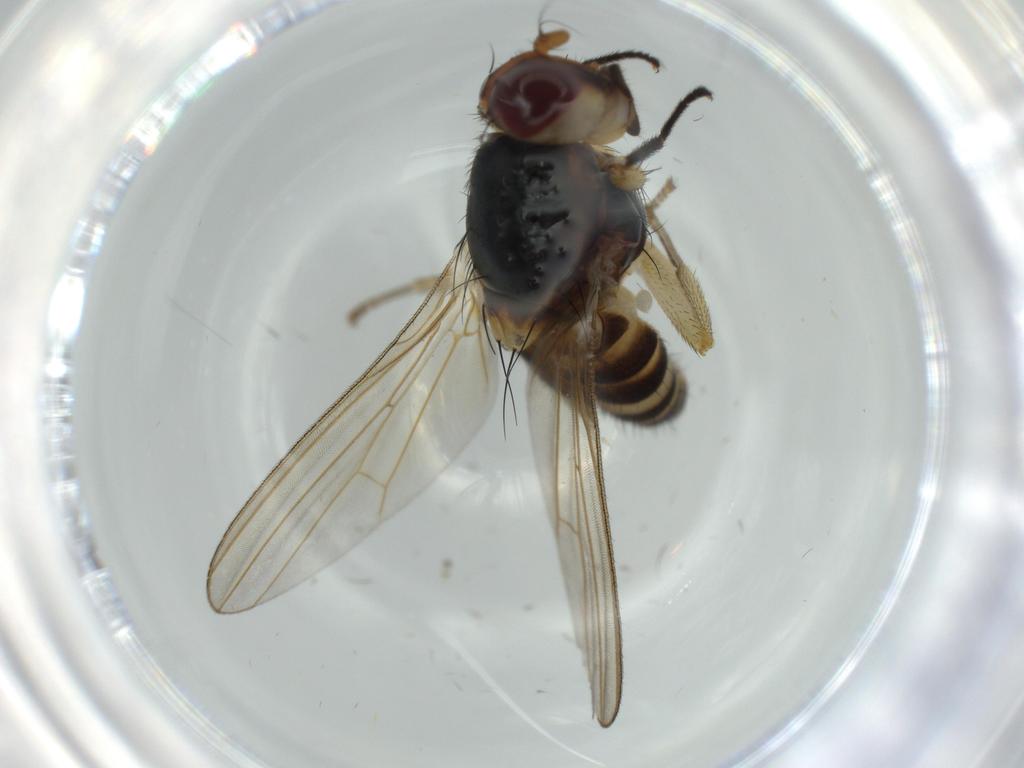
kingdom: Animalia
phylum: Arthropoda
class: Insecta
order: Diptera
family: Lauxaniidae
